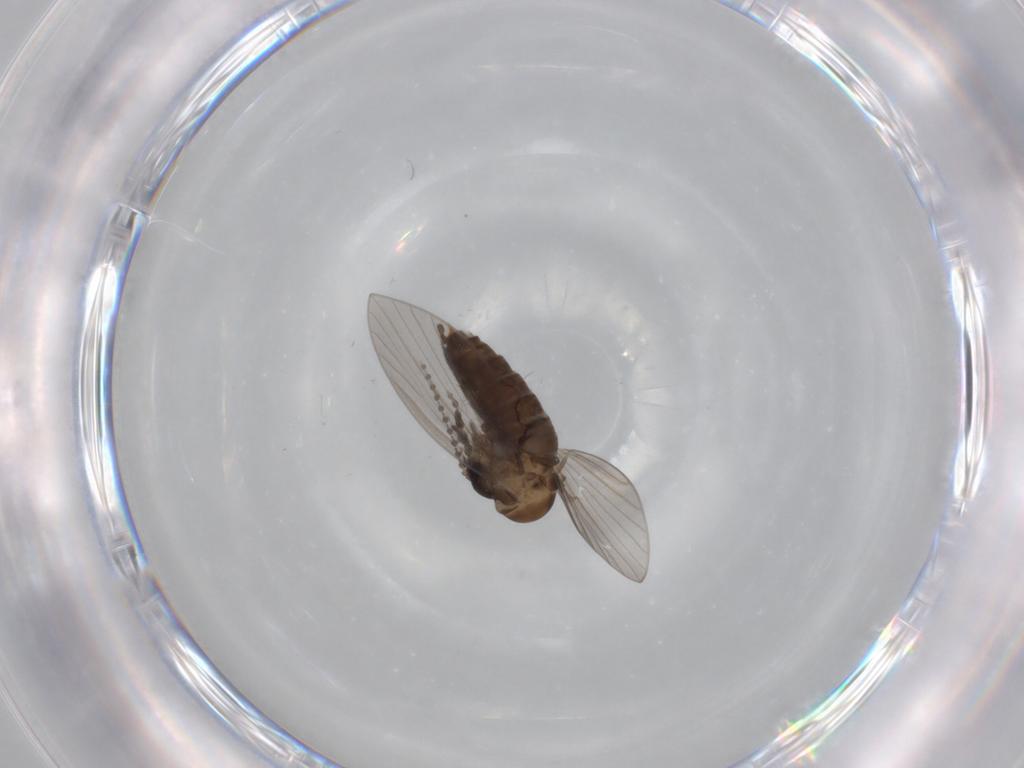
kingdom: Animalia
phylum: Arthropoda
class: Insecta
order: Diptera
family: Psychodidae
